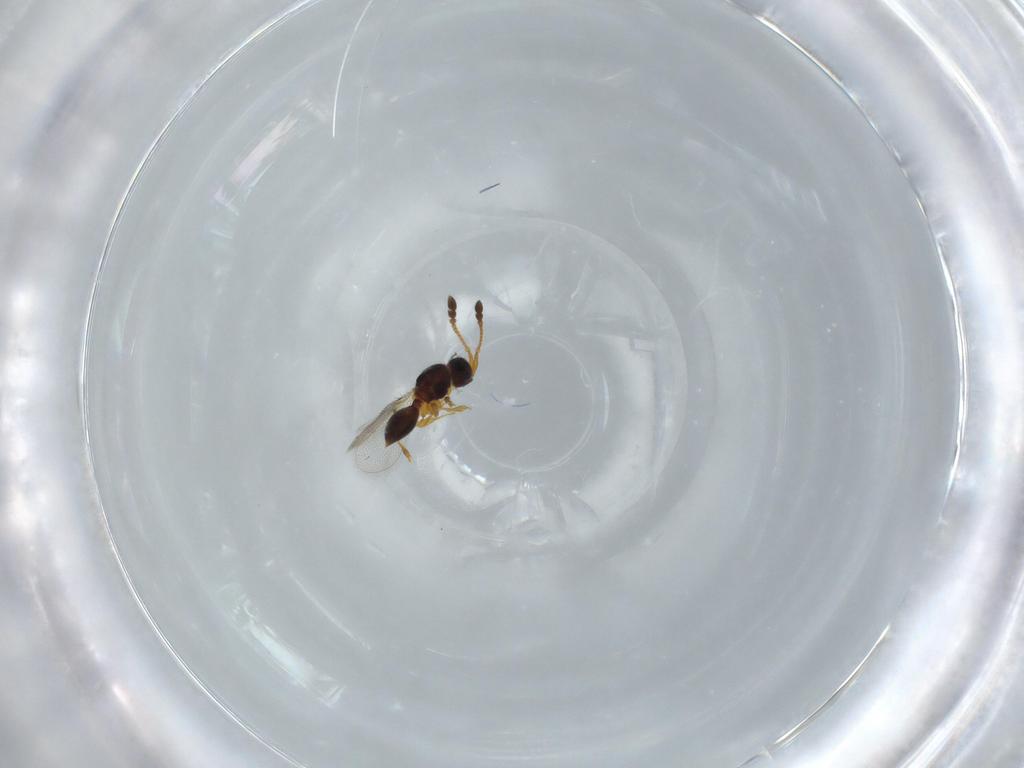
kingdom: Animalia
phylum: Arthropoda
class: Insecta
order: Hymenoptera
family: Diapriidae
